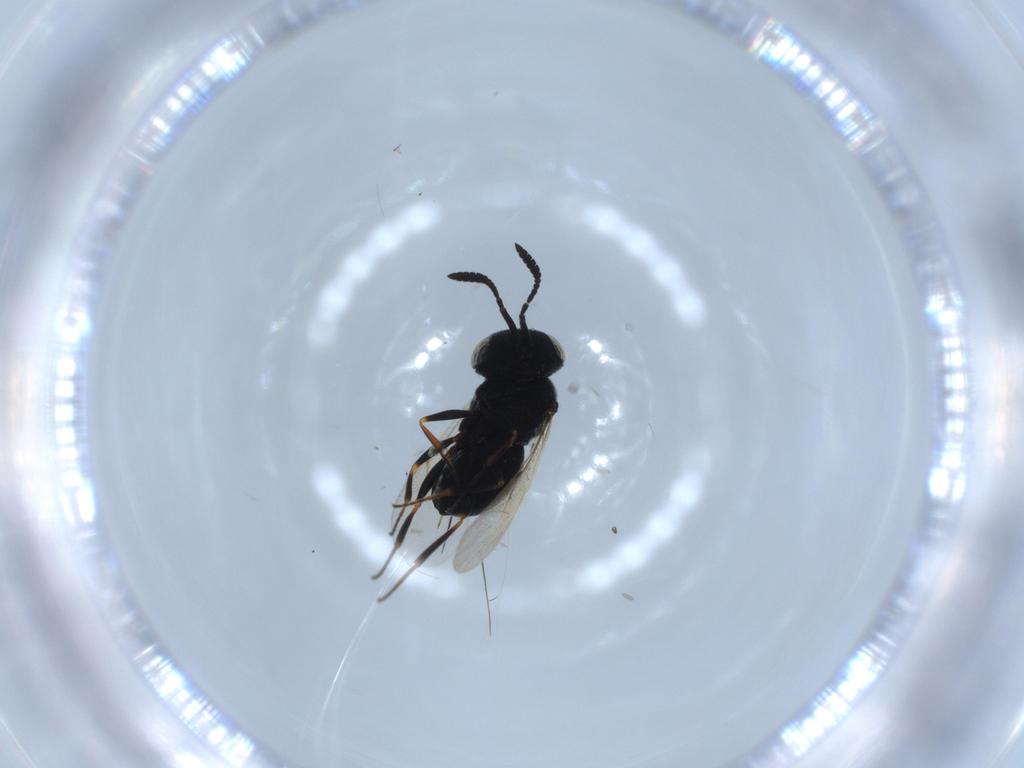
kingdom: Animalia
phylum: Arthropoda
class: Insecta
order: Hymenoptera
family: Scelionidae
